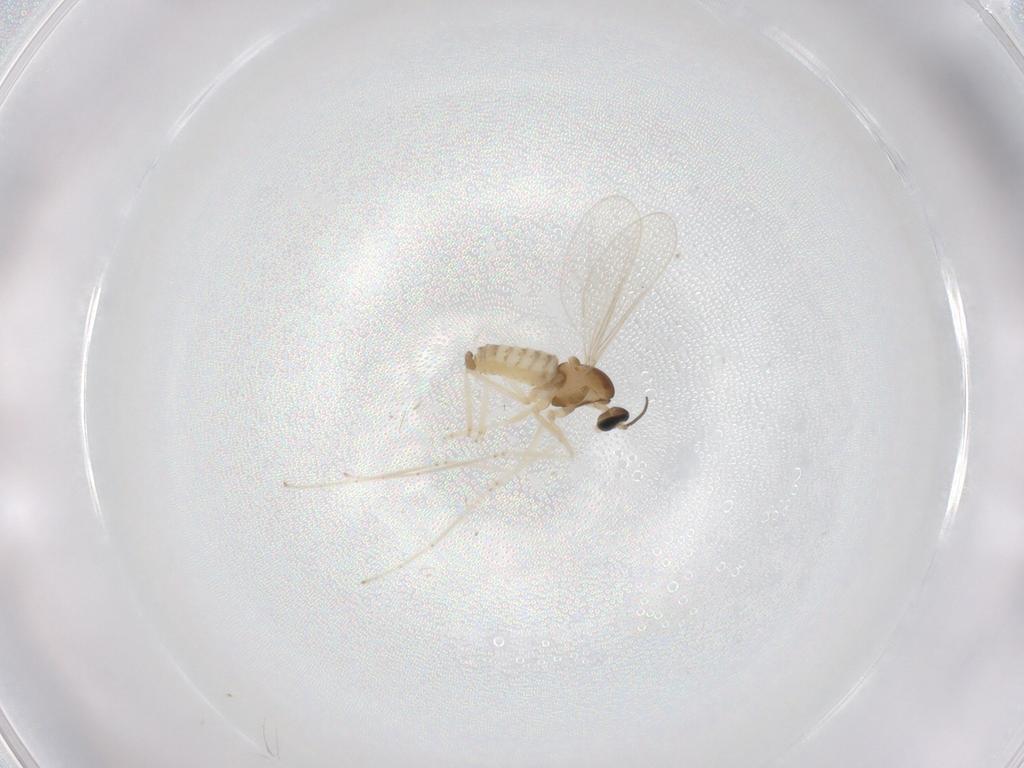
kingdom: Animalia
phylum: Arthropoda
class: Insecta
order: Diptera
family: Cecidomyiidae
